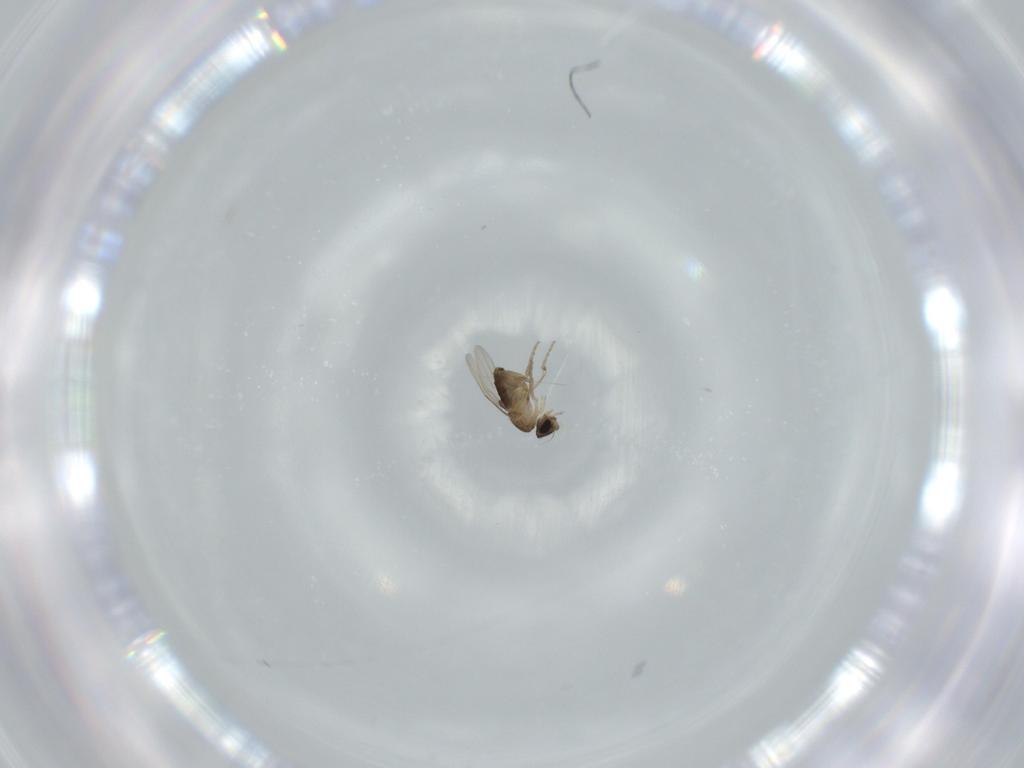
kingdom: Animalia
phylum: Arthropoda
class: Insecta
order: Diptera
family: Phoridae
